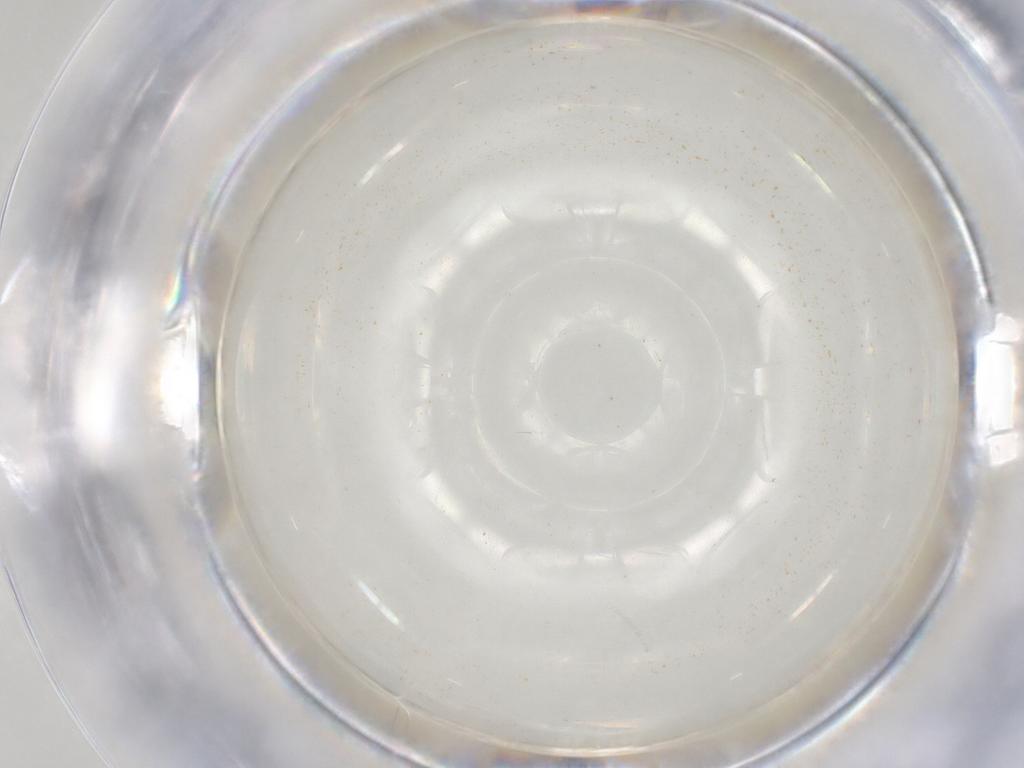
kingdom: Animalia
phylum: Arthropoda
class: Insecta
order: Diptera
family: Sciaridae
